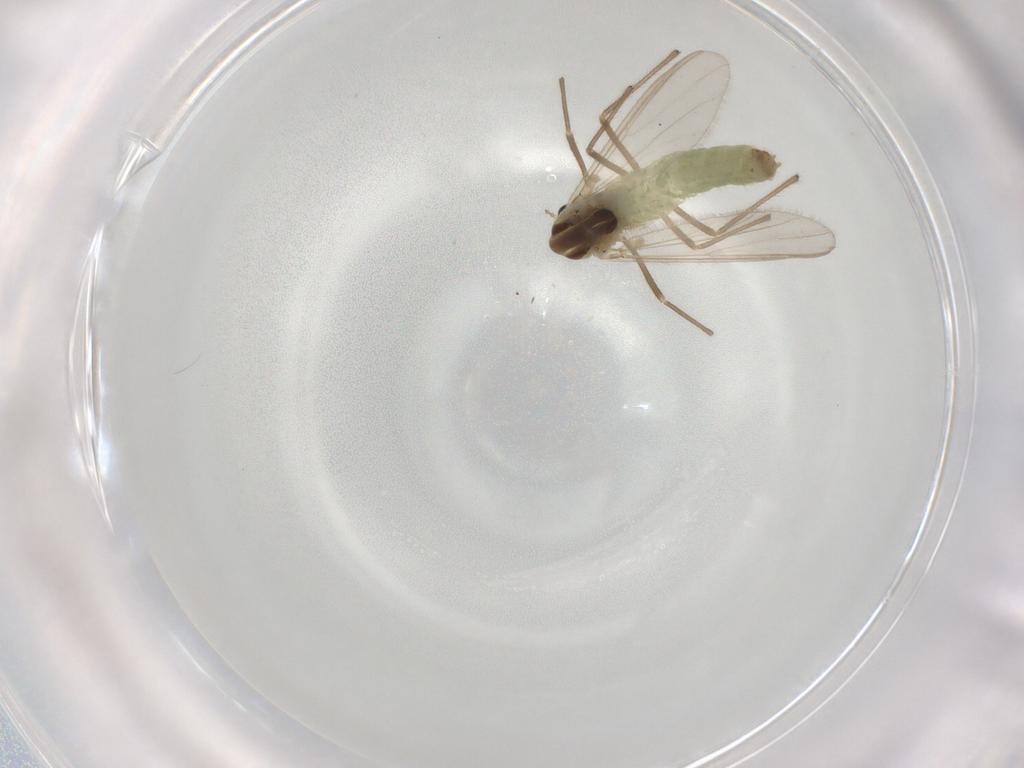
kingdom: Animalia
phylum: Arthropoda
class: Insecta
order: Diptera
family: Chironomidae
